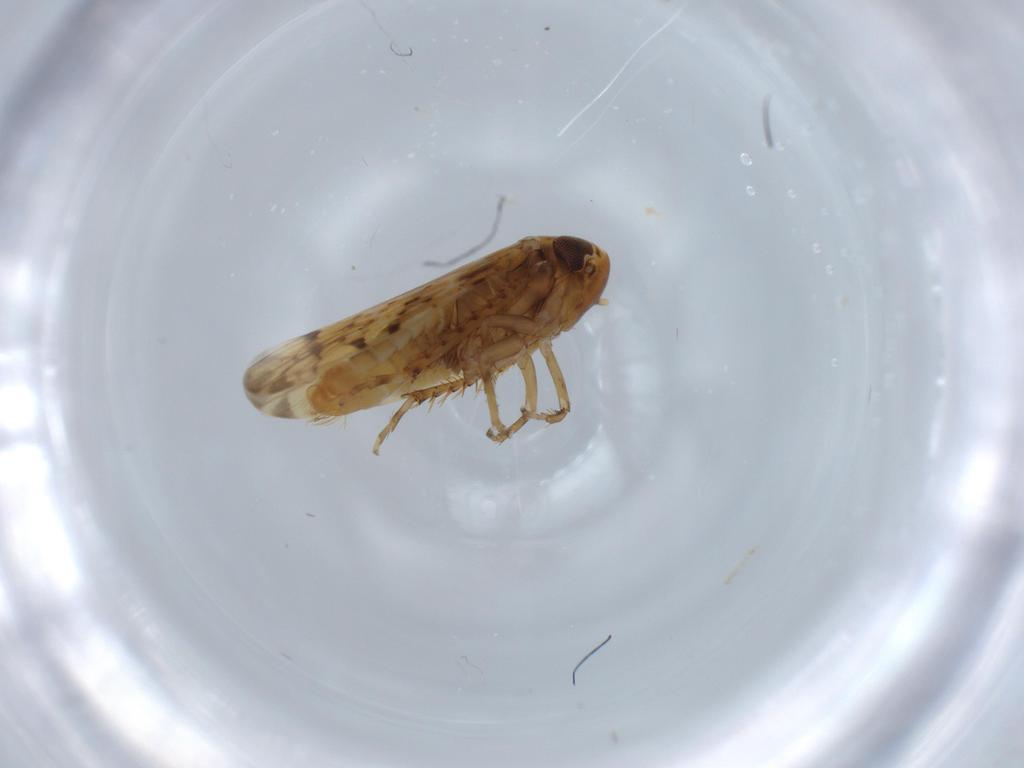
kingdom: Animalia
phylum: Arthropoda
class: Insecta
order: Hemiptera
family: Cicadellidae
